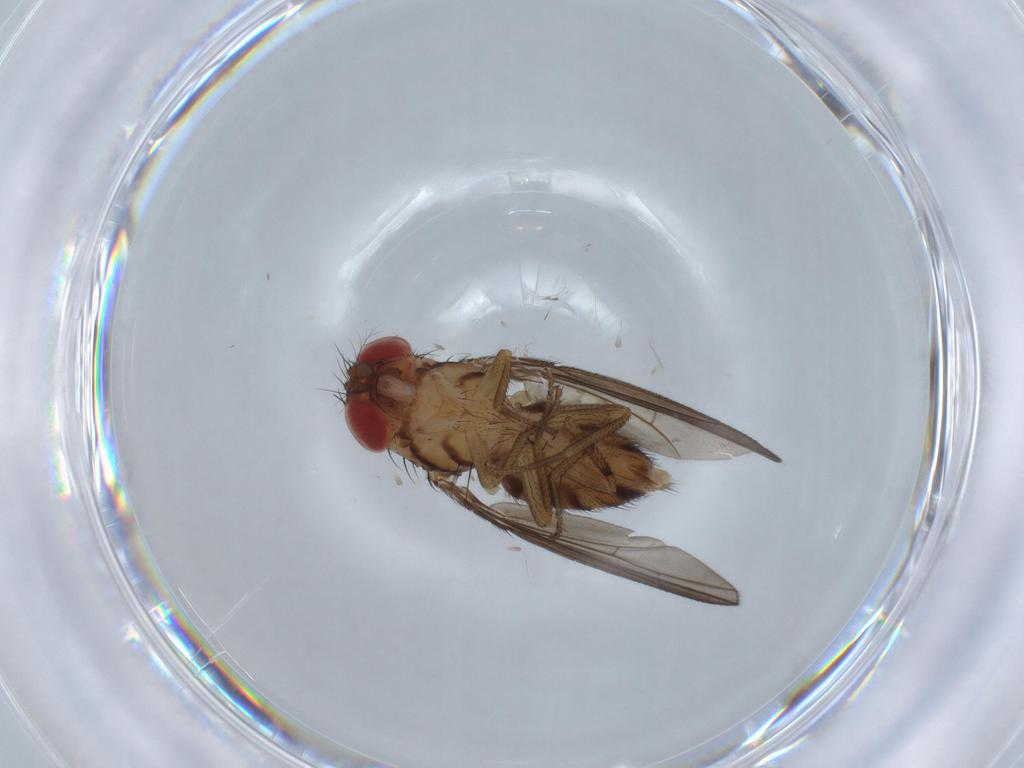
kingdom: Animalia
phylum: Arthropoda
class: Insecta
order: Diptera
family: Drosophilidae
